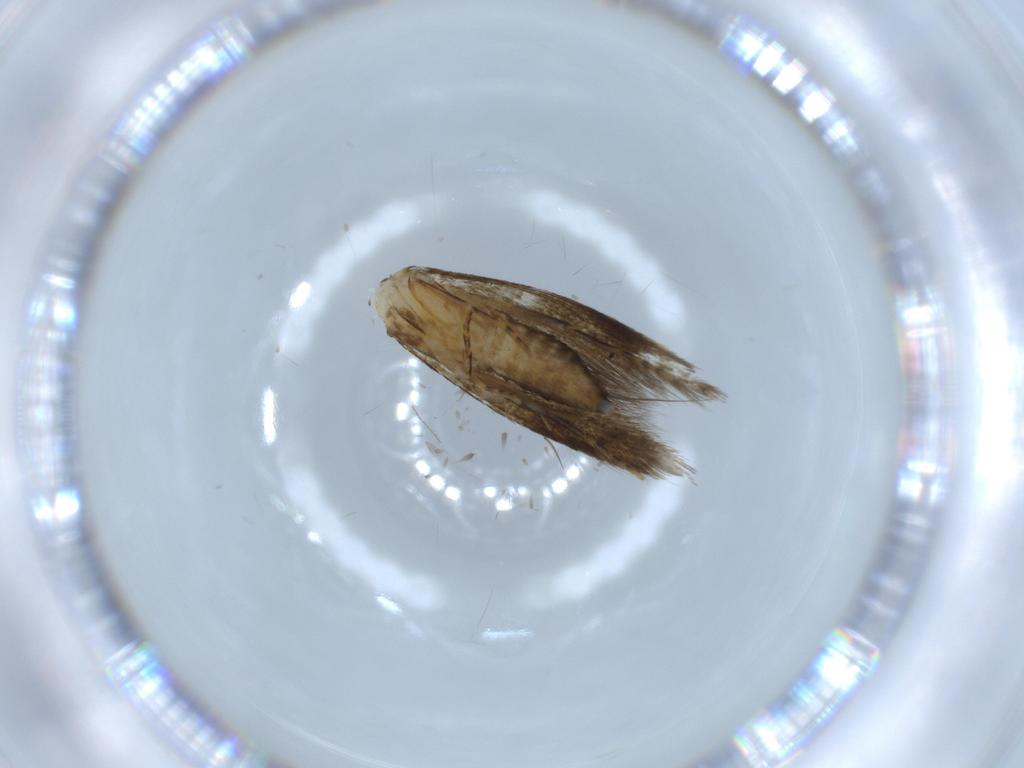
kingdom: Animalia
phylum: Arthropoda
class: Insecta
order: Lepidoptera
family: Tineidae
